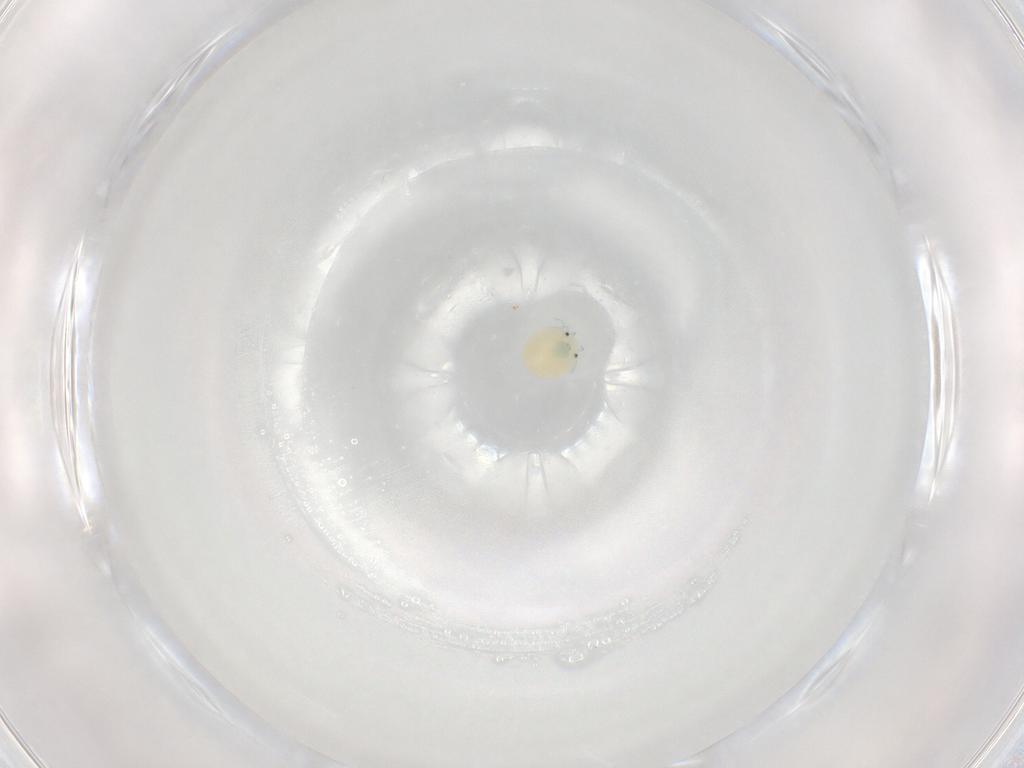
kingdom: Animalia
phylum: Arthropoda
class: Arachnida
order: Trombidiformes
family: Arrenuridae
